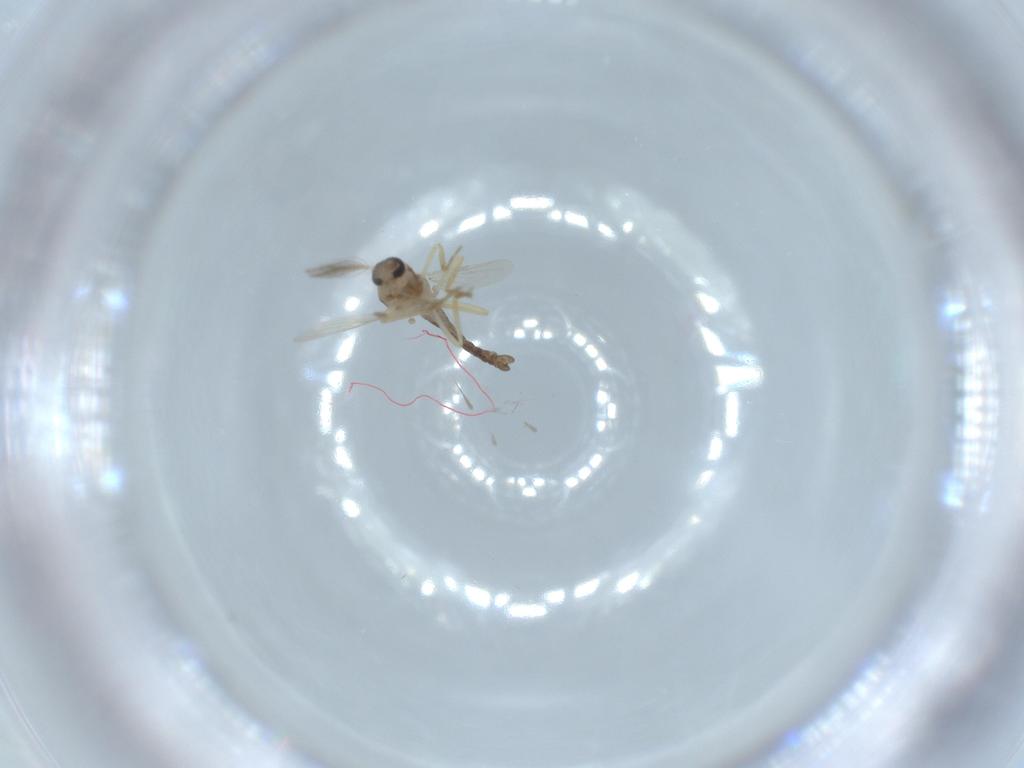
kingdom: Animalia
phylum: Arthropoda
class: Insecta
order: Diptera
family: Ceratopogonidae
